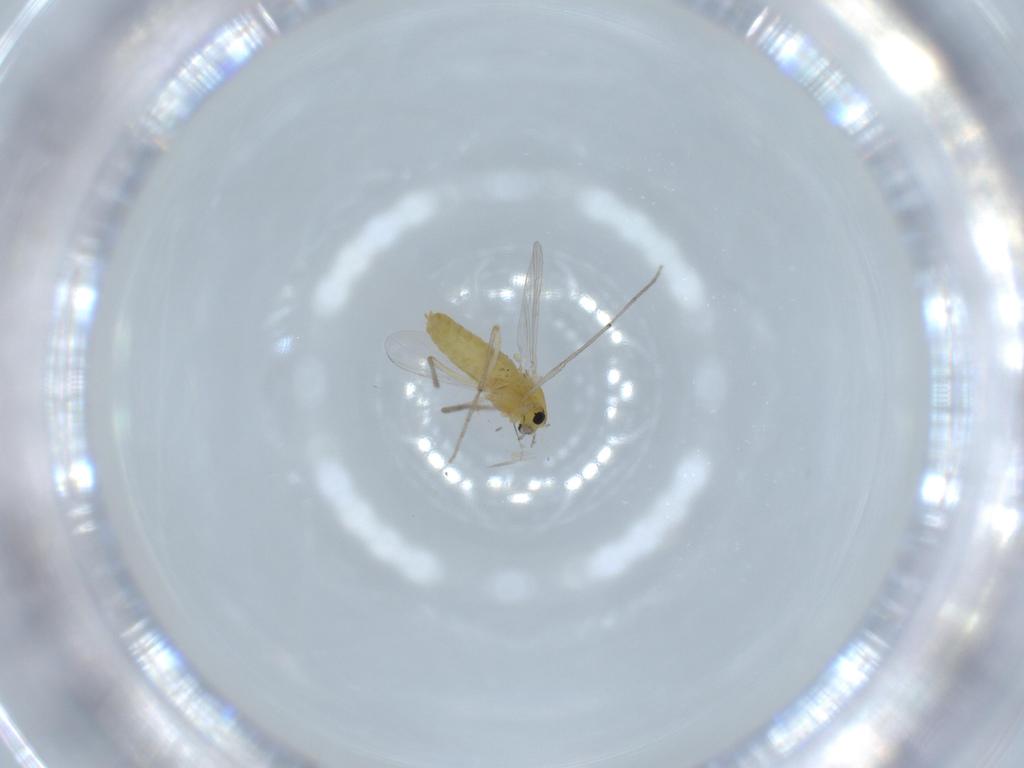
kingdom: Animalia
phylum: Arthropoda
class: Insecta
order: Diptera
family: Chironomidae
